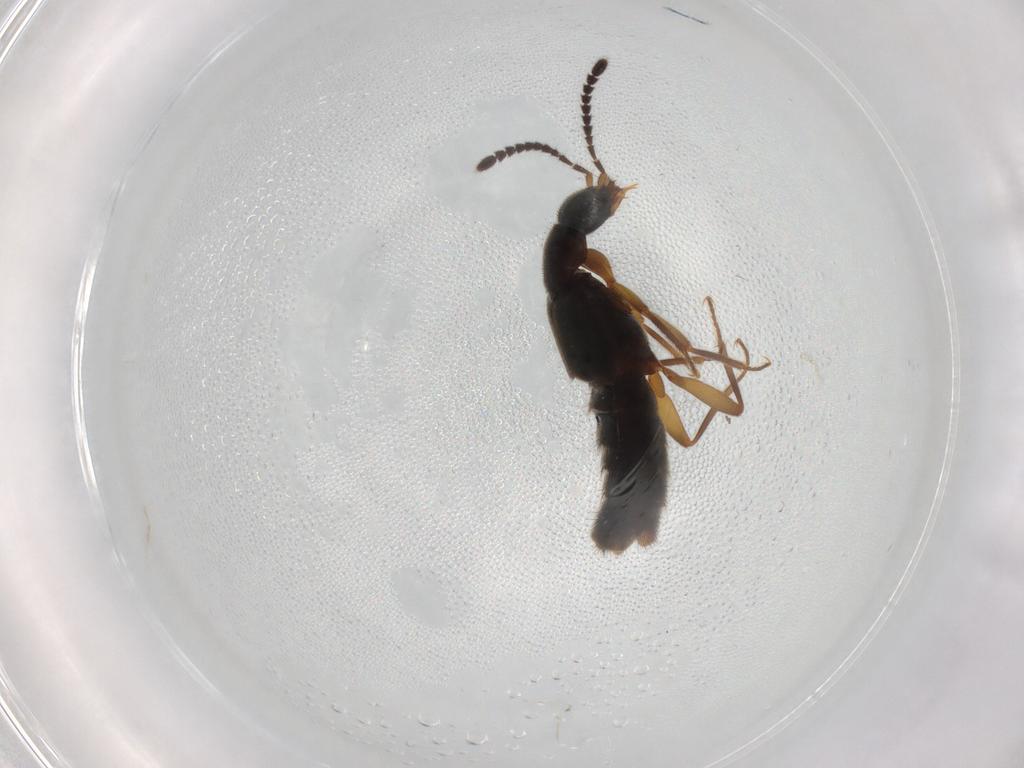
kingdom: Animalia
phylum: Arthropoda
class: Insecta
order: Coleoptera
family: Staphylinidae
